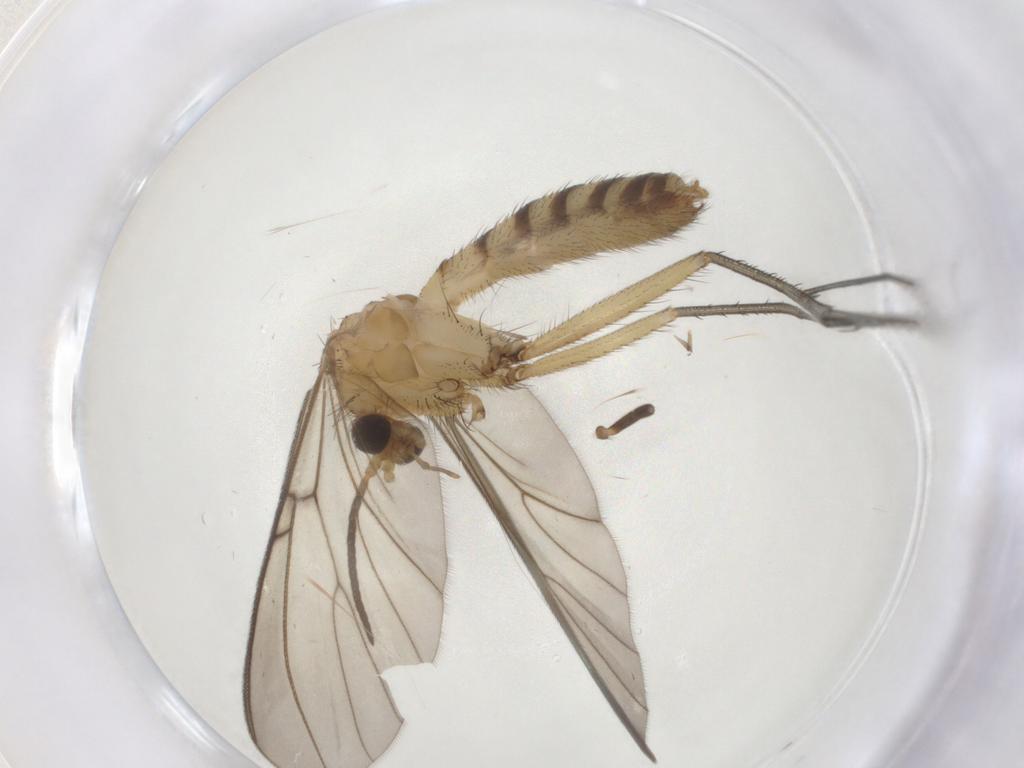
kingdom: Animalia
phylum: Arthropoda
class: Insecta
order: Diptera
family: Mycetophilidae
